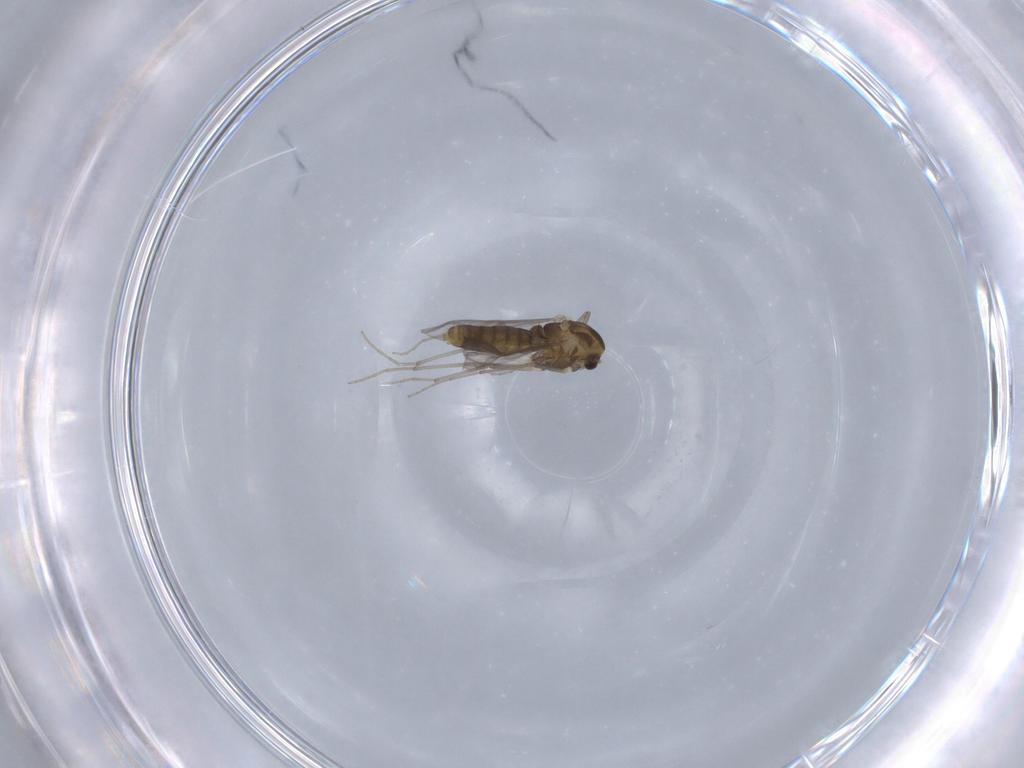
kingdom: Animalia
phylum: Arthropoda
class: Insecta
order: Diptera
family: Chironomidae
